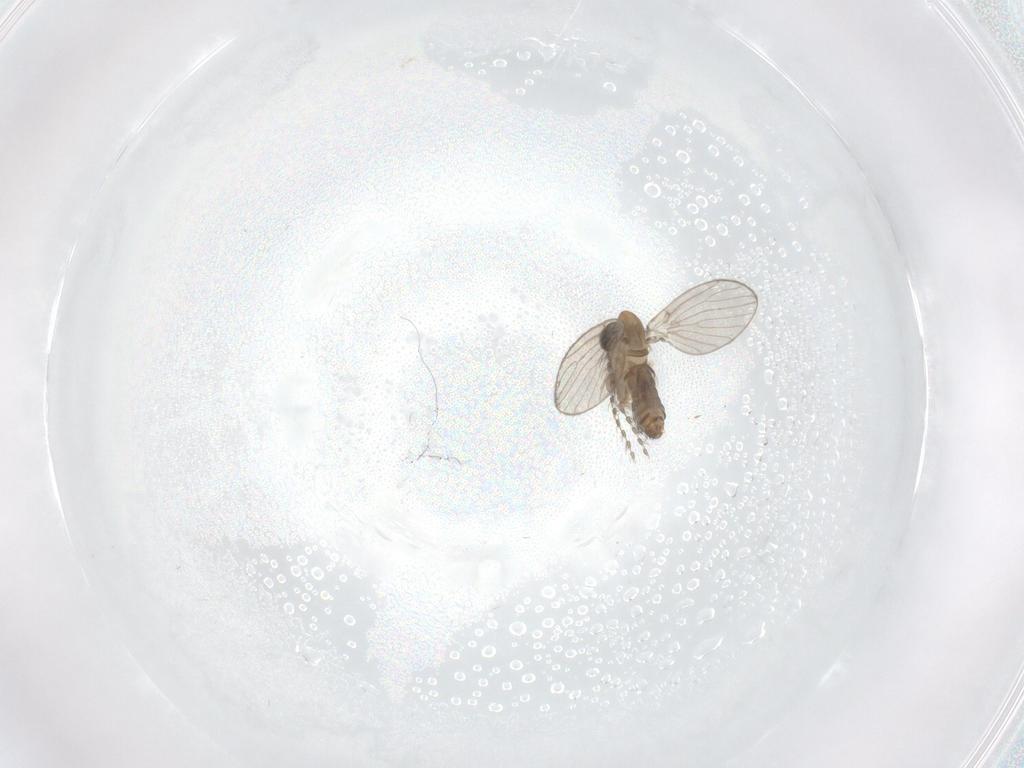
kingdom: Animalia
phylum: Arthropoda
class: Insecta
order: Diptera
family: Psychodidae
